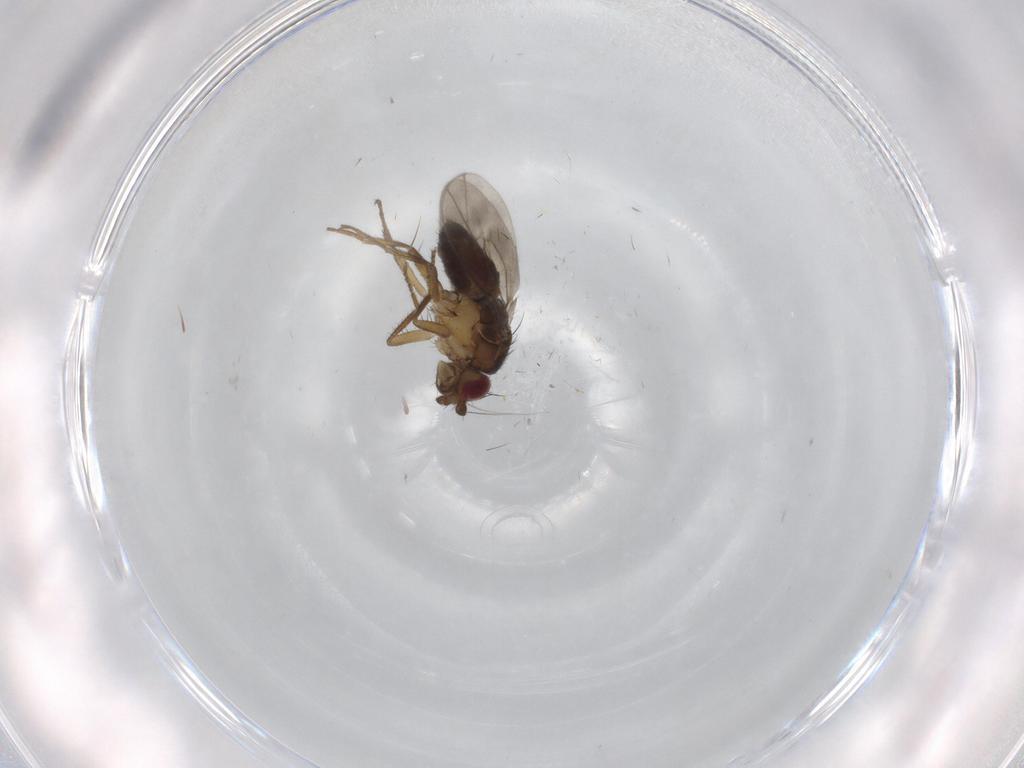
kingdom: Animalia
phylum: Arthropoda
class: Insecta
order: Diptera
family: Sphaeroceridae
